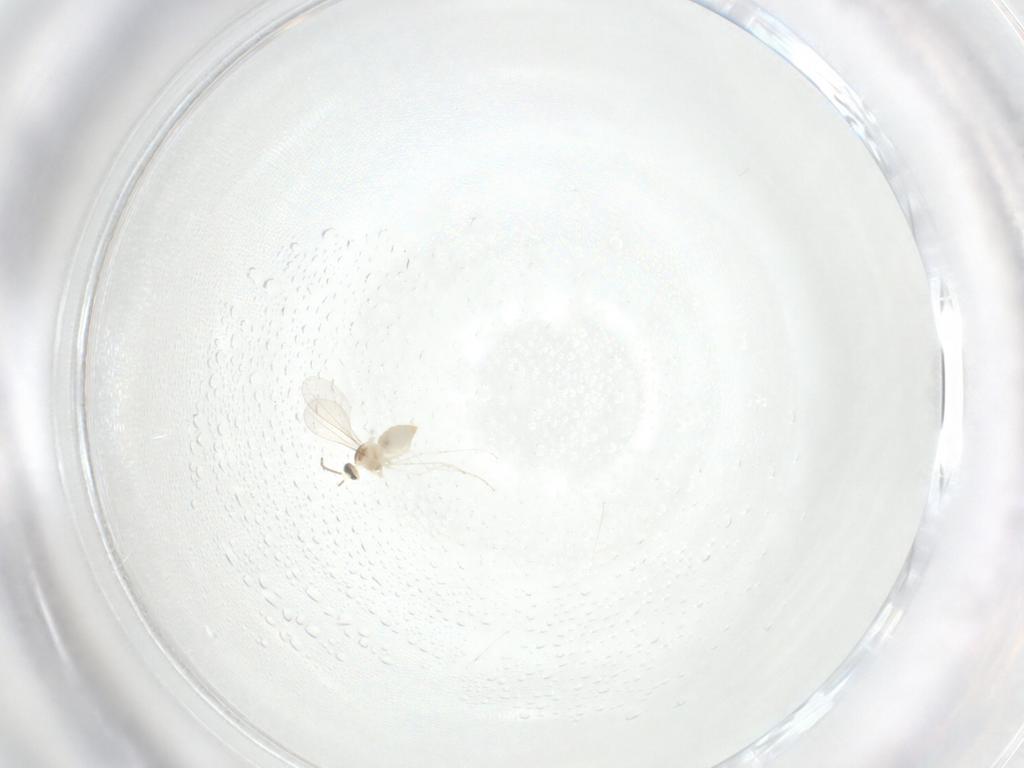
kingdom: Animalia
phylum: Arthropoda
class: Insecta
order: Diptera
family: Cecidomyiidae
